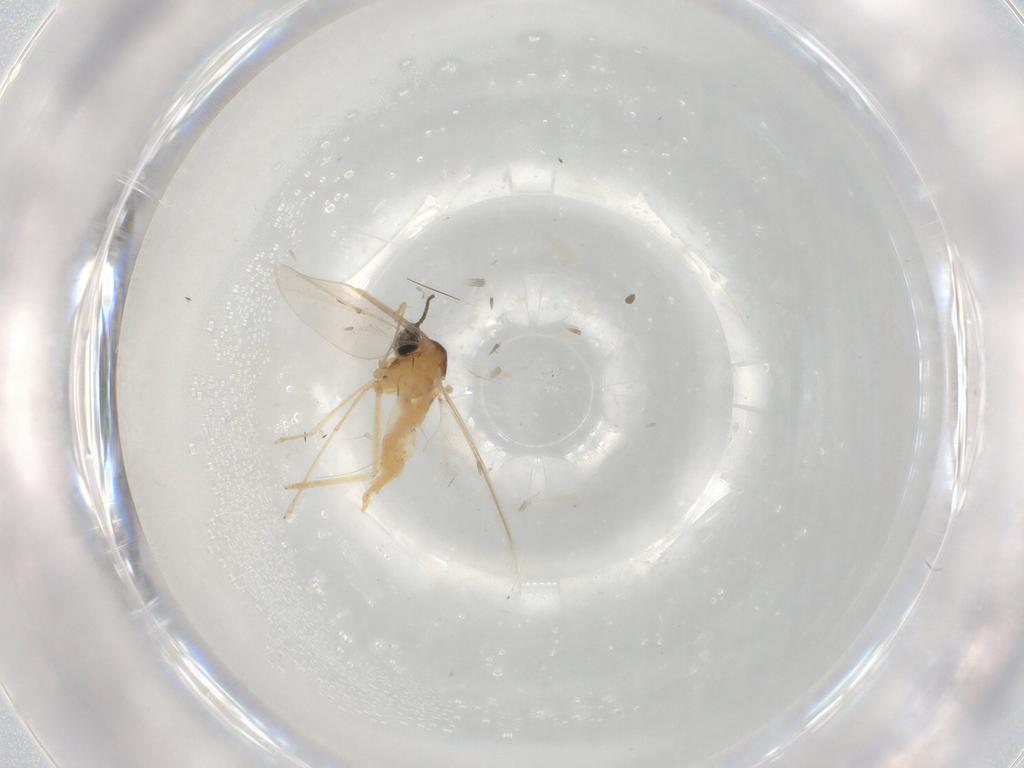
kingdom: Animalia
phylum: Arthropoda
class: Insecta
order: Diptera
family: Cecidomyiidae
